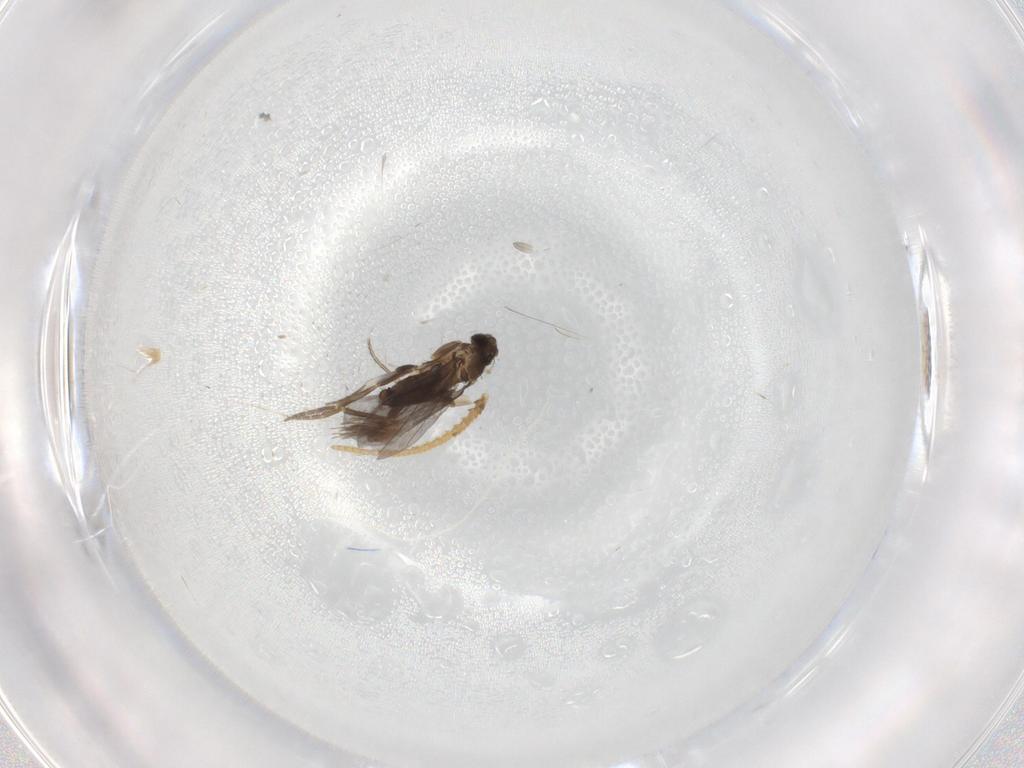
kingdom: Animalia
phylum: Arthropoda
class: Insecta
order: Diptera
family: Phoridae
